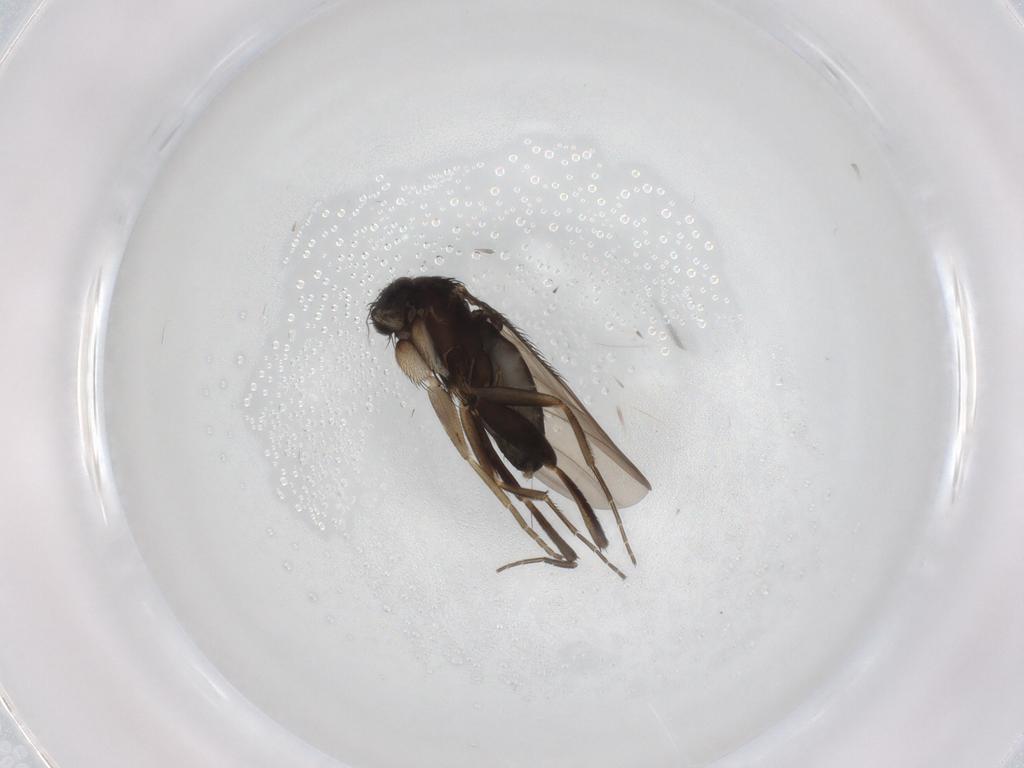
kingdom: Animalia
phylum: Arthropoda
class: Insecta
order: Diptera
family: Phoridae
